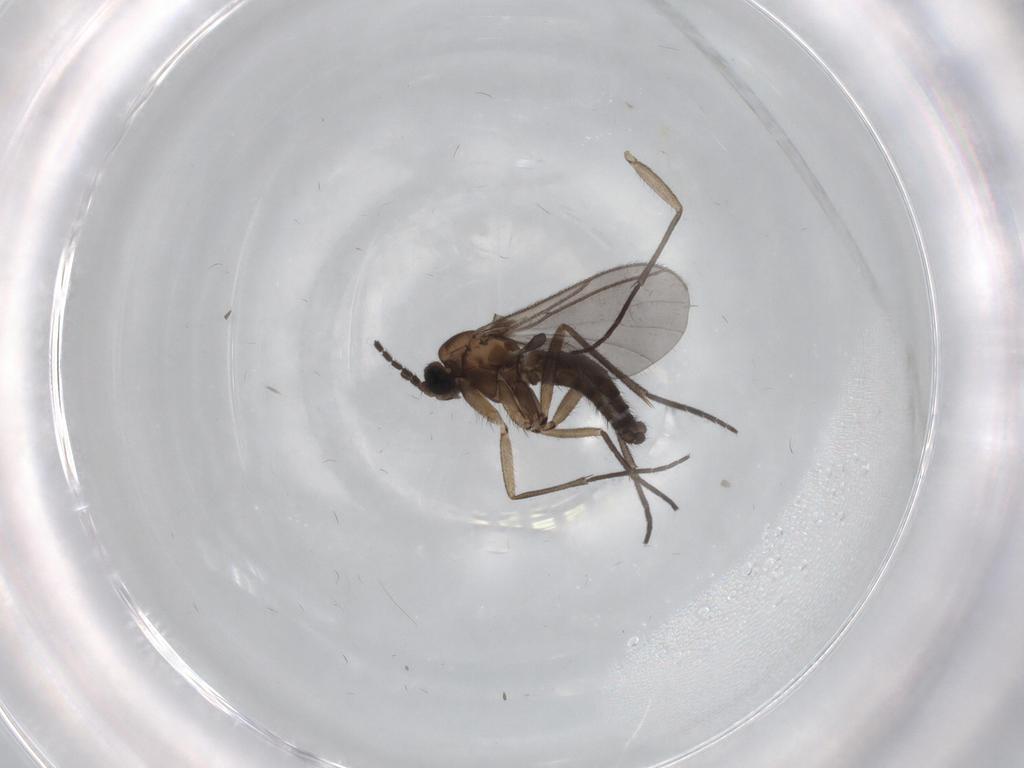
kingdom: Animalia
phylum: Arthropoda
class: Insecta
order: Diptera
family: Sciaridae
